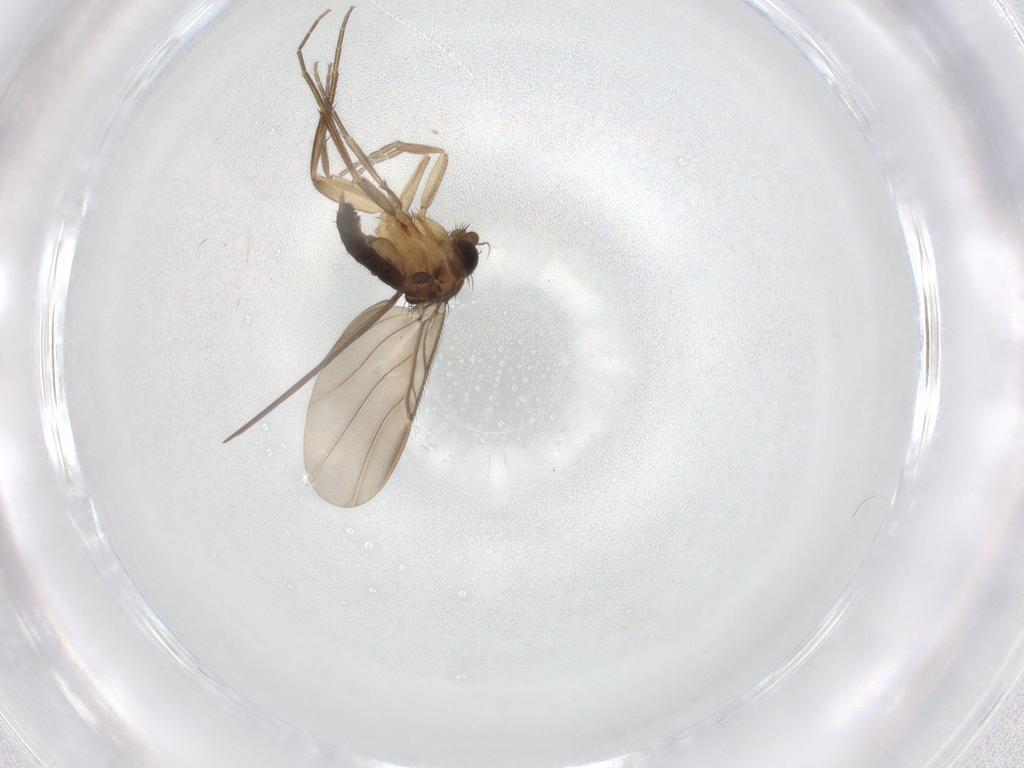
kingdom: Animalia
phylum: Arthropoda
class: Insecta
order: Diptera
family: Phoridae
